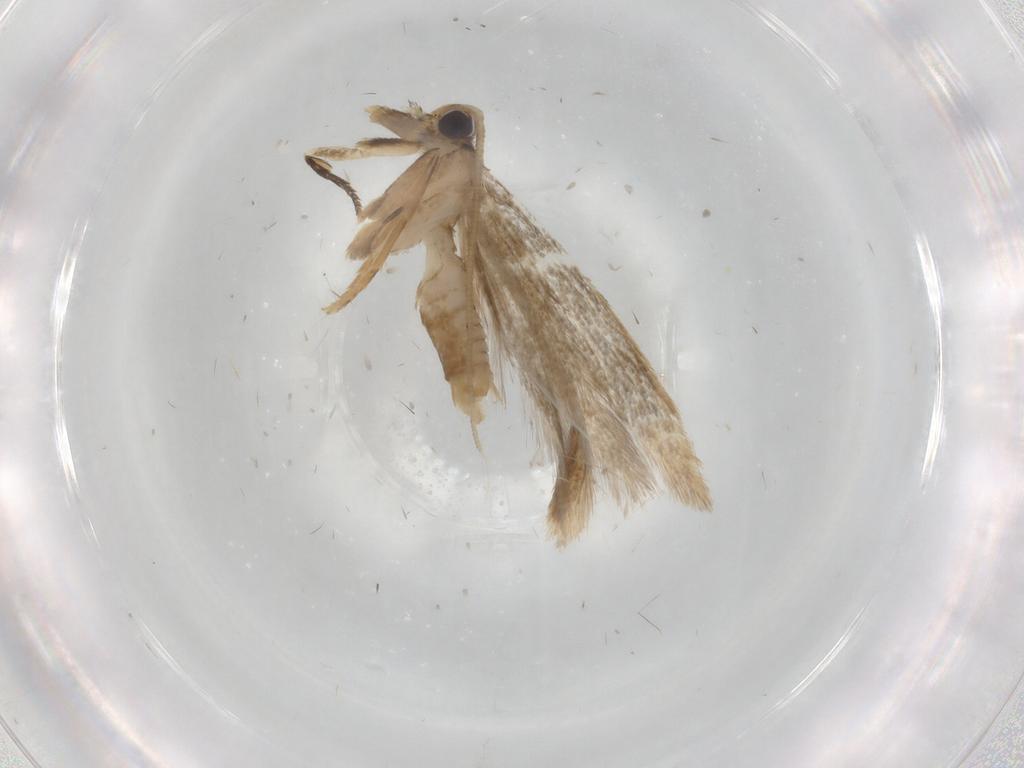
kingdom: Animalia
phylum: Arthropoda
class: Insecta
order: Lepidoptera
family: Coleophoridae
